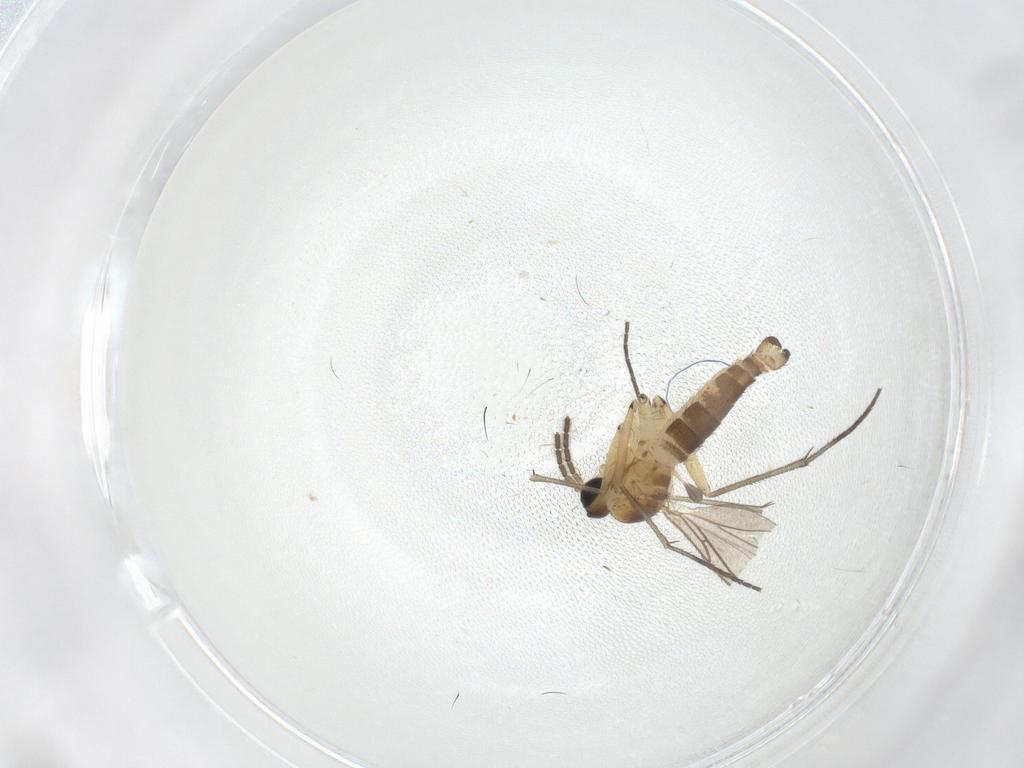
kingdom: Animalia
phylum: Arthropoda
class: Insecta
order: Diptera
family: Sciaridae
